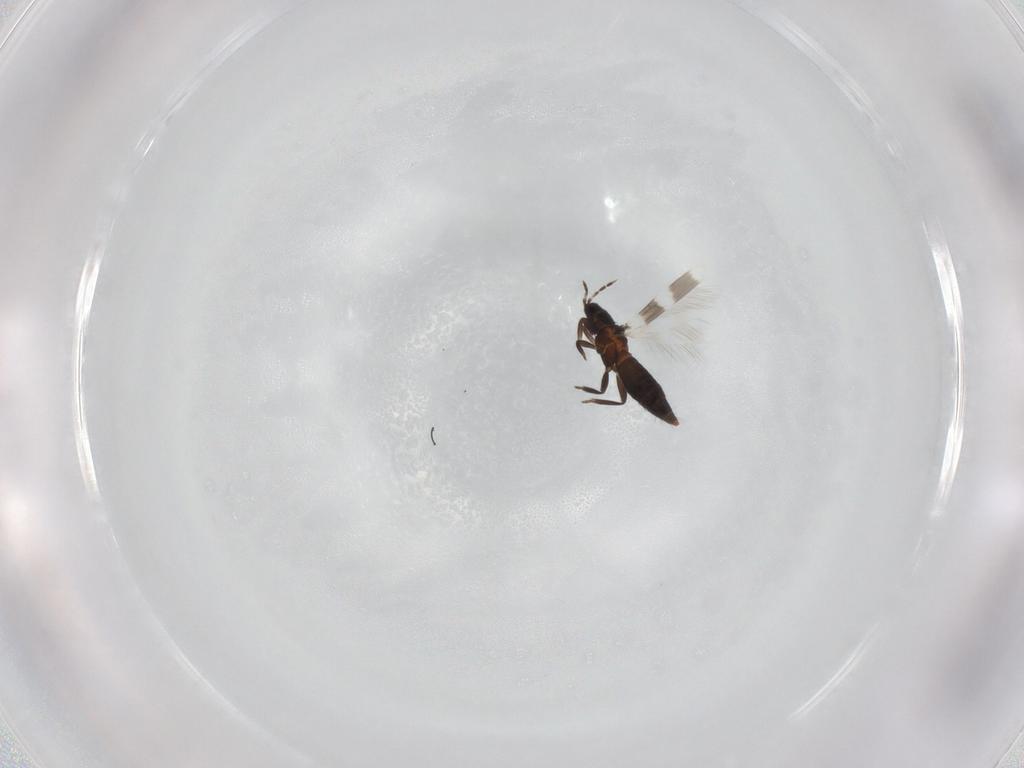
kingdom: Animalia
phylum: Arthropoda
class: Insecta
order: Thysanoptera
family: Aeolothripidae
